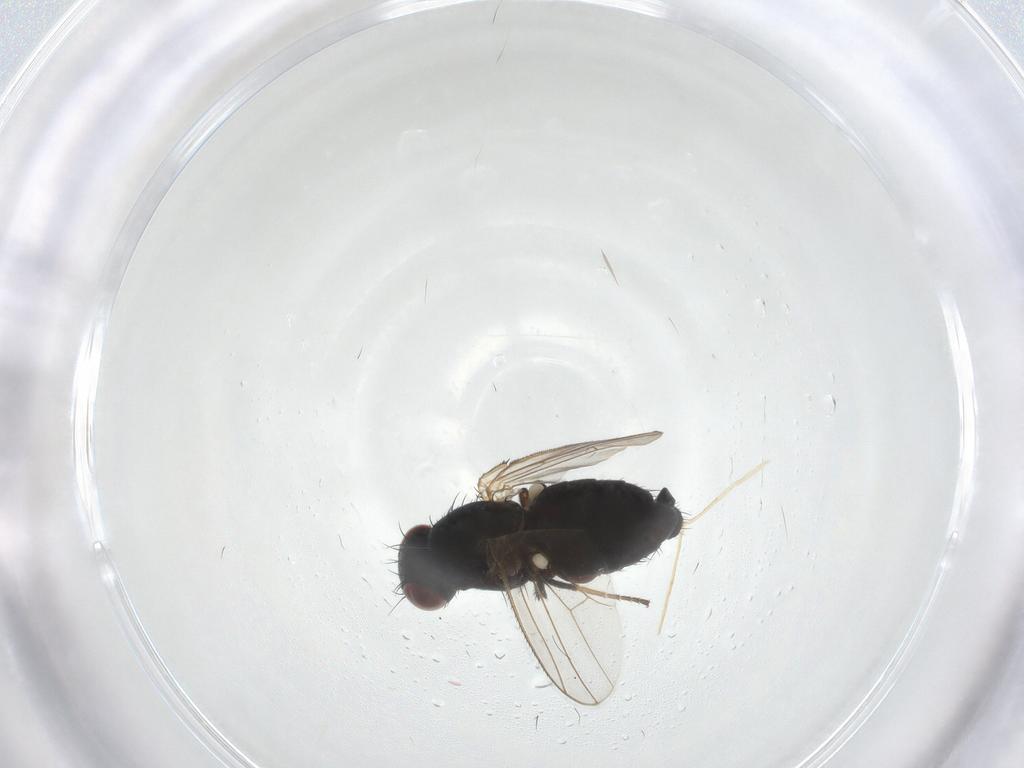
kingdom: Animalia
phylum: Arthropoda
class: Insecta
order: Diptera
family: Carnidae
